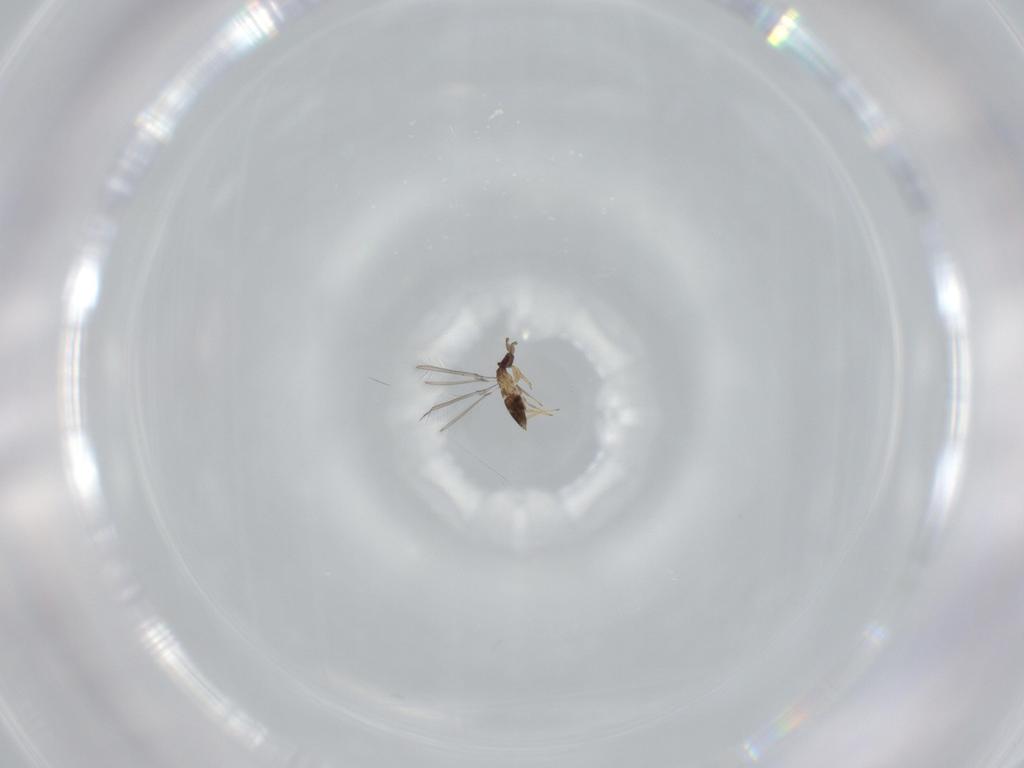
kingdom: Animalia
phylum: Arthropoda
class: Insecta
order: Hymenoptera
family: Mymaridae
